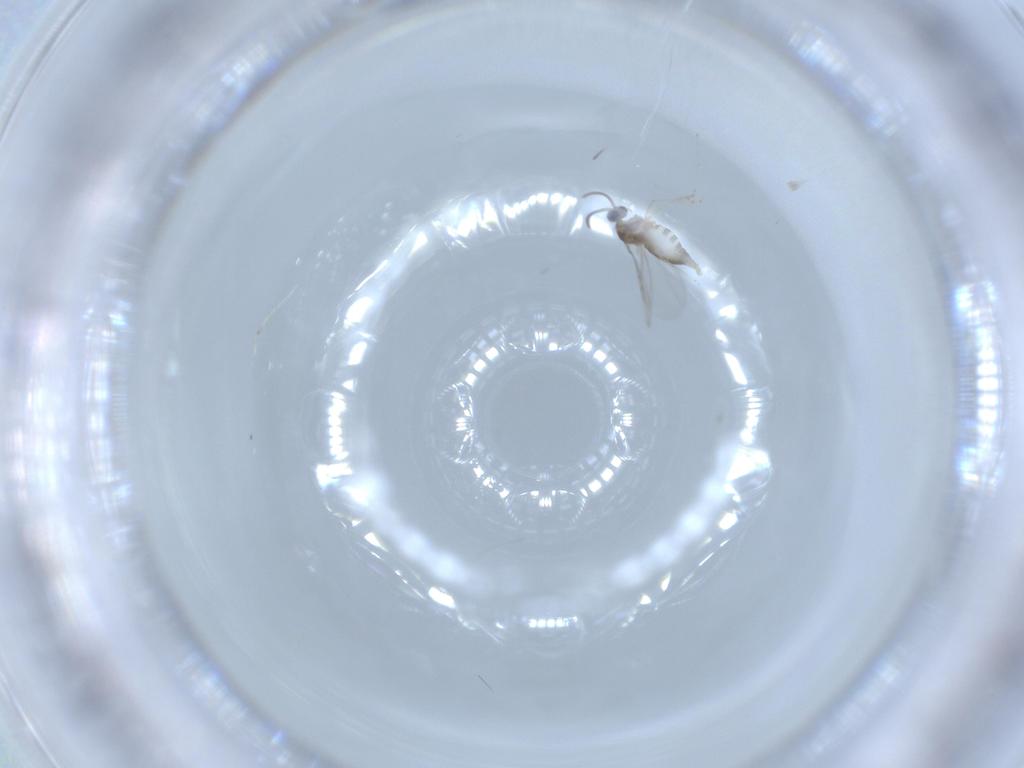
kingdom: Animalia
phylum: Arthropoda
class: Insecta
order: Diptera
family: Cecidomyiidae
